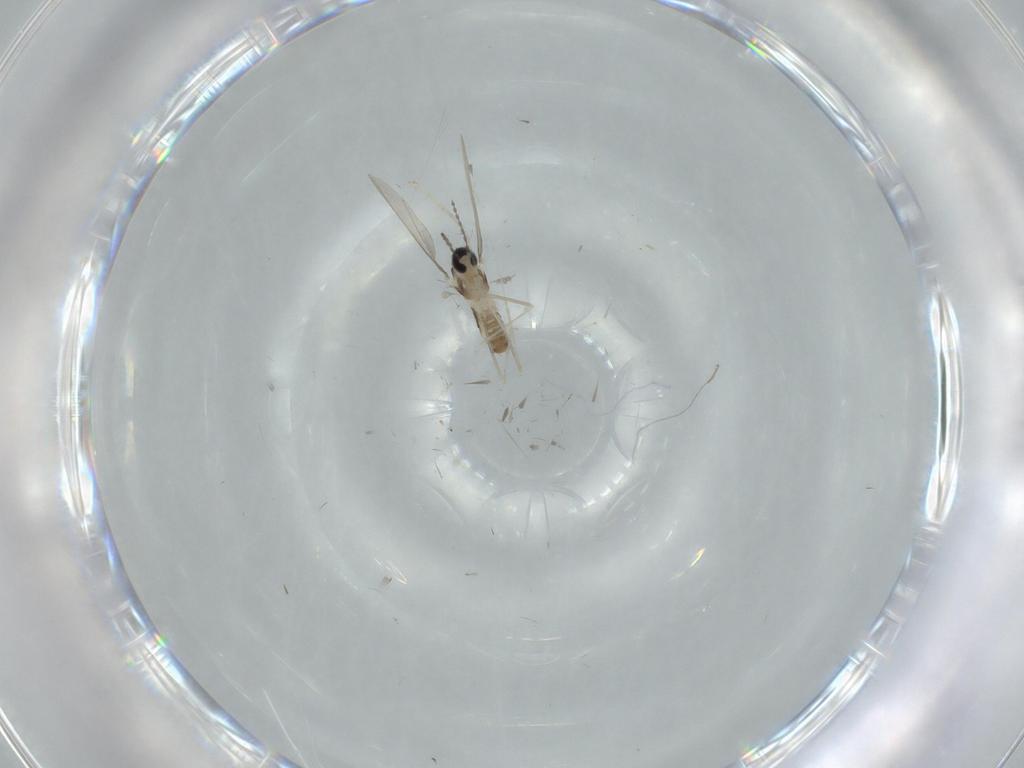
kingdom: Animalia
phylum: Arthropoda
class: Insecta
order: Diptera
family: Cecidomyiidae
